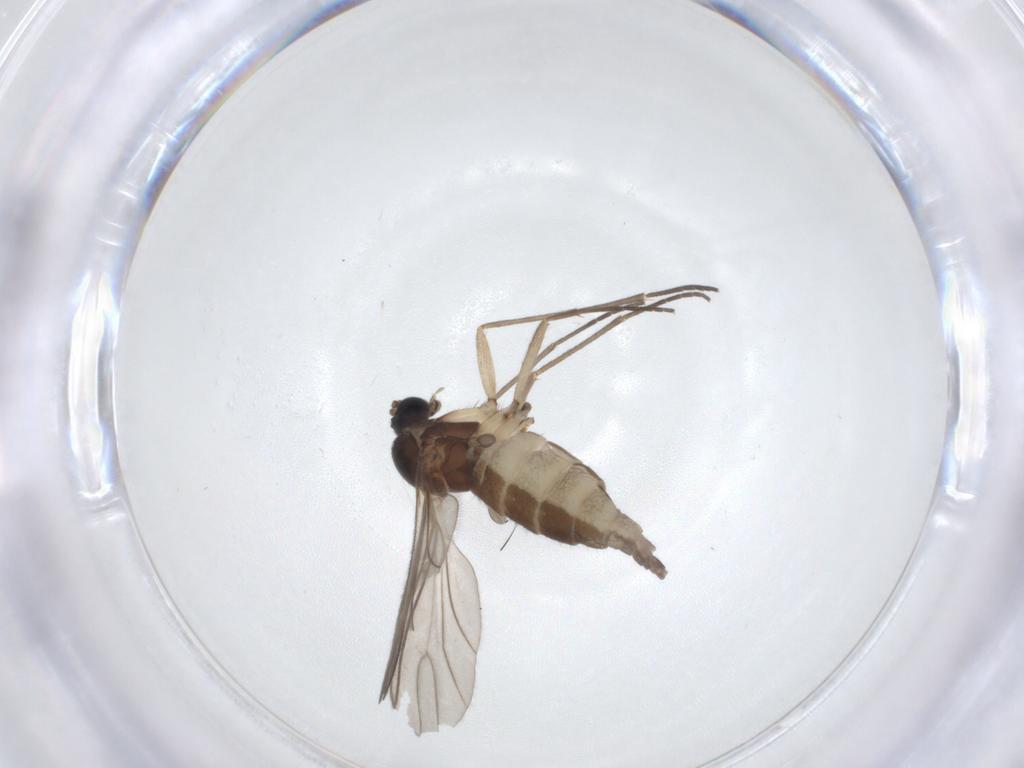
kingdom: Animalia
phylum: Arthropoda
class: Insecta
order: Diptera
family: Sciaridae
